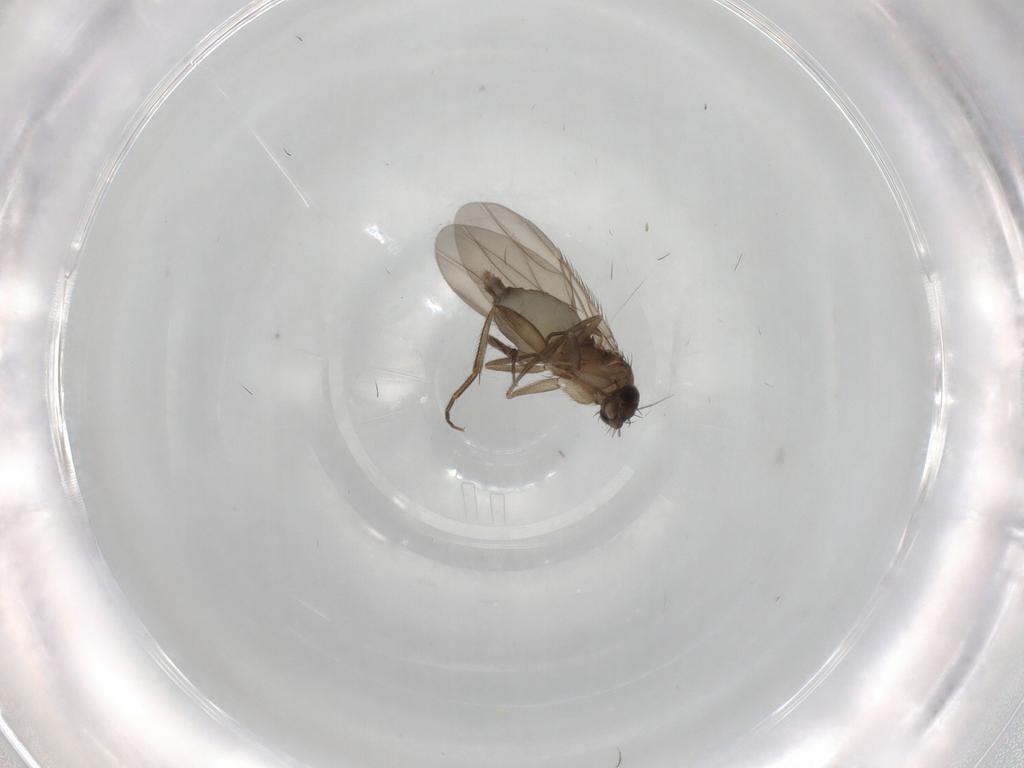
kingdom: Animalia
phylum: Arthropoda
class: Insecta
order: Diptera
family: Phoridae
